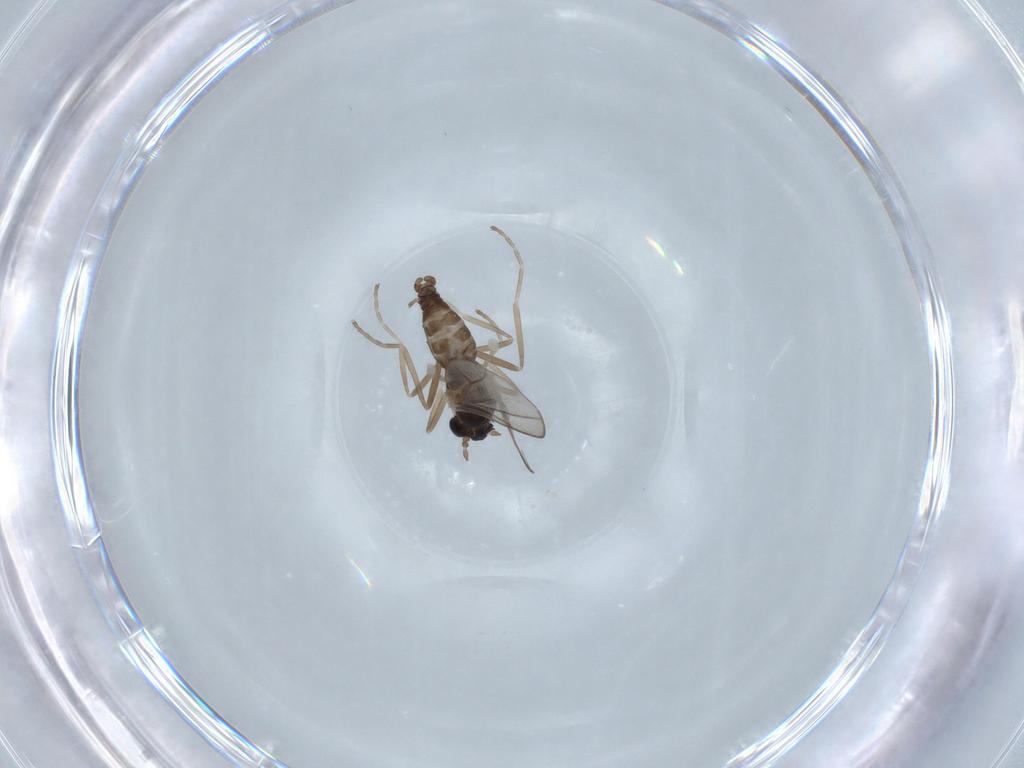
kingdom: Animalia
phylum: Arthropoda
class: Insecta
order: Diptera
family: Cecidomyiidae
